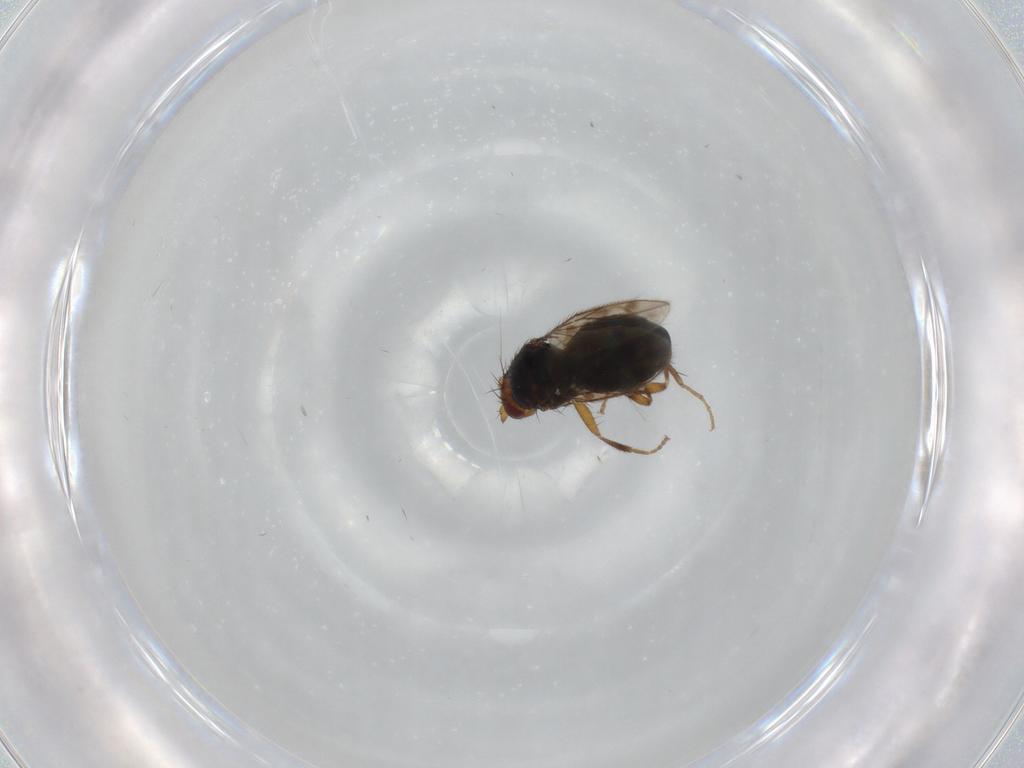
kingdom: Animalia
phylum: Arthropoda
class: Insecta
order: Diptera
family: Sphaeroceridae
